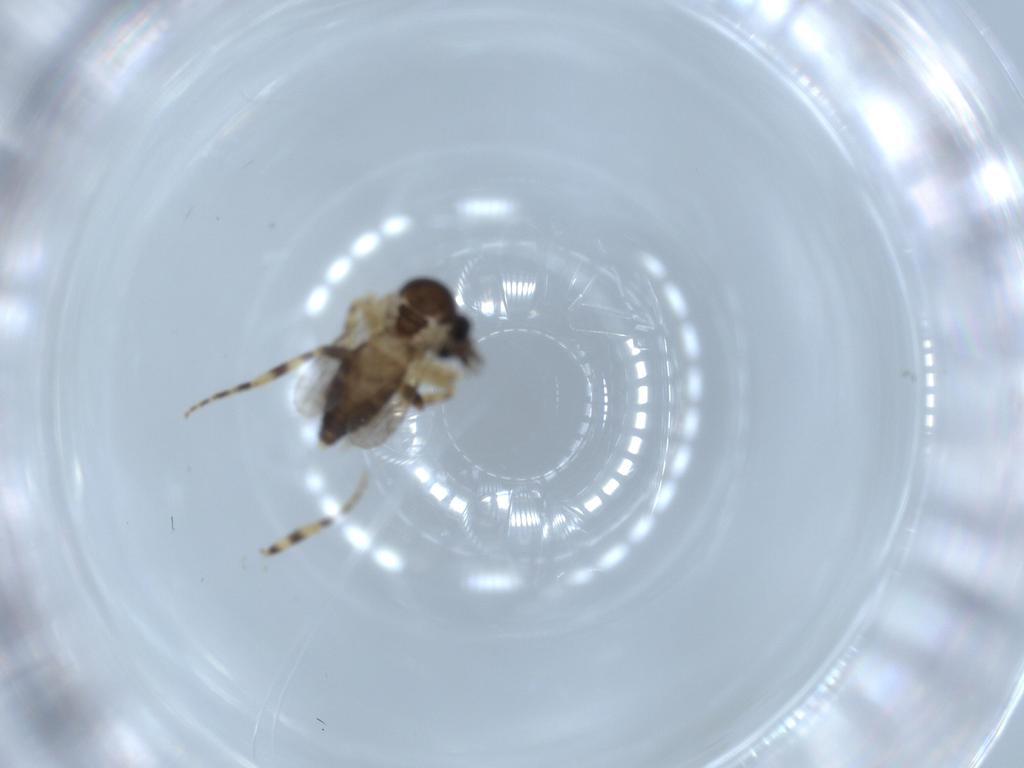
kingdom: Animalia
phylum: Arthropoda
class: Insecta
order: Diptera
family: Ceratopogonidae
